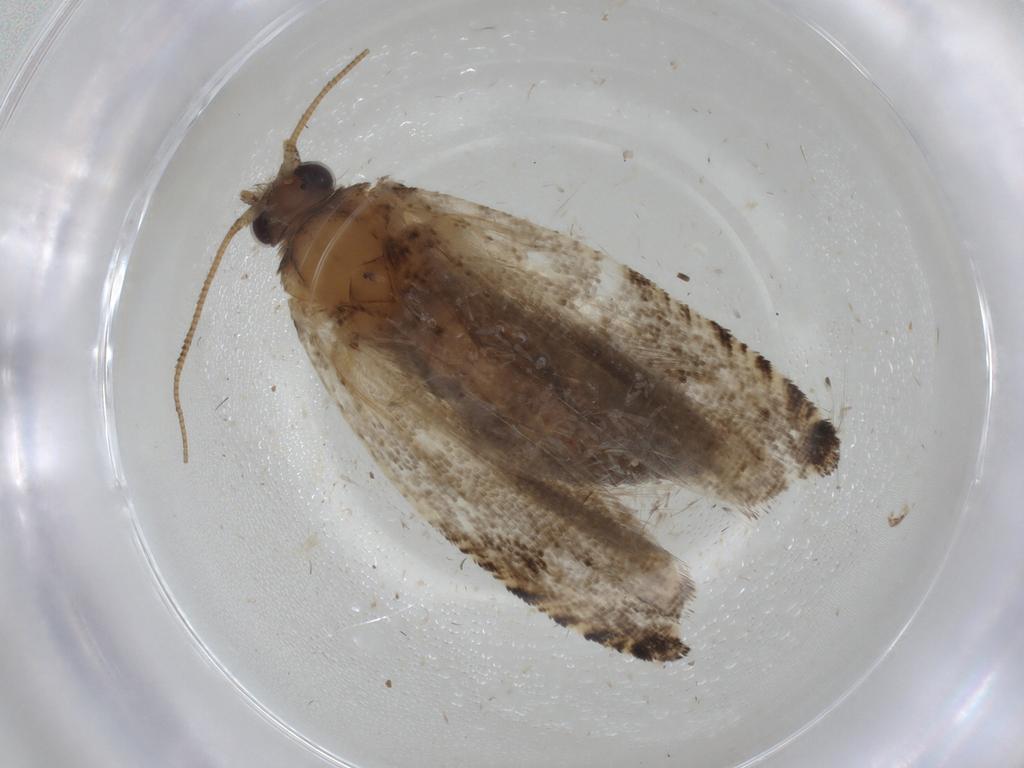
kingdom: Animalia
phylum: Arthropoda
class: Insecta
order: Lepidoptera
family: Tortricidae
